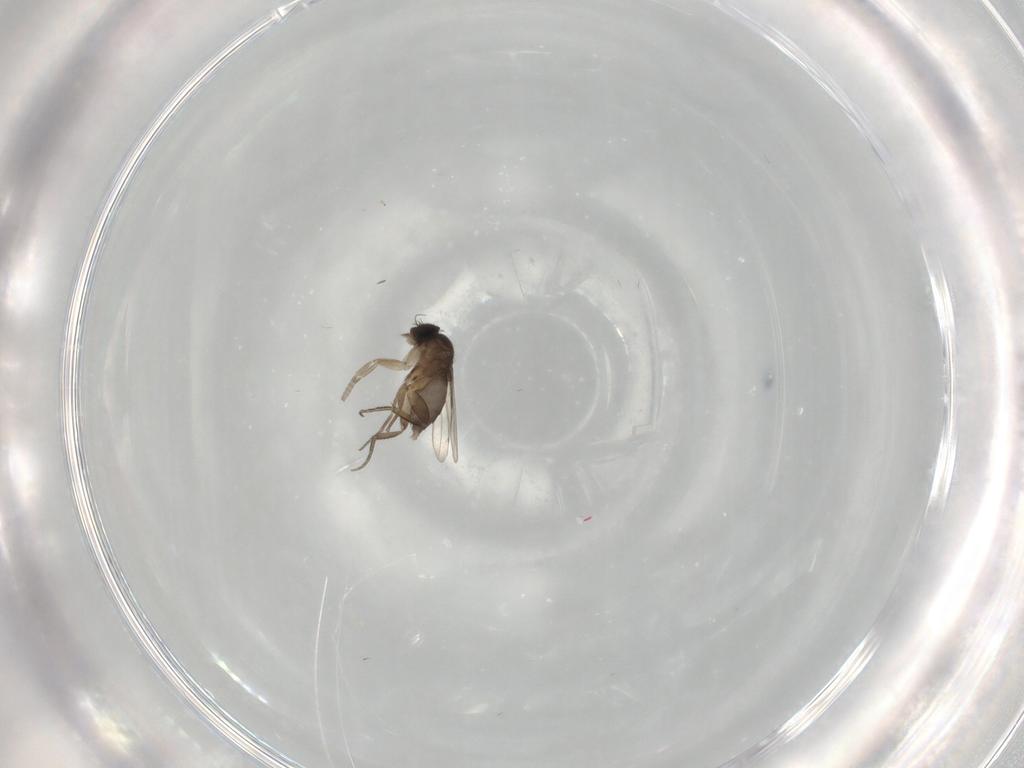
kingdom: Animalia
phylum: Arthropoda
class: Insecta
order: Diptera
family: Phoridae
